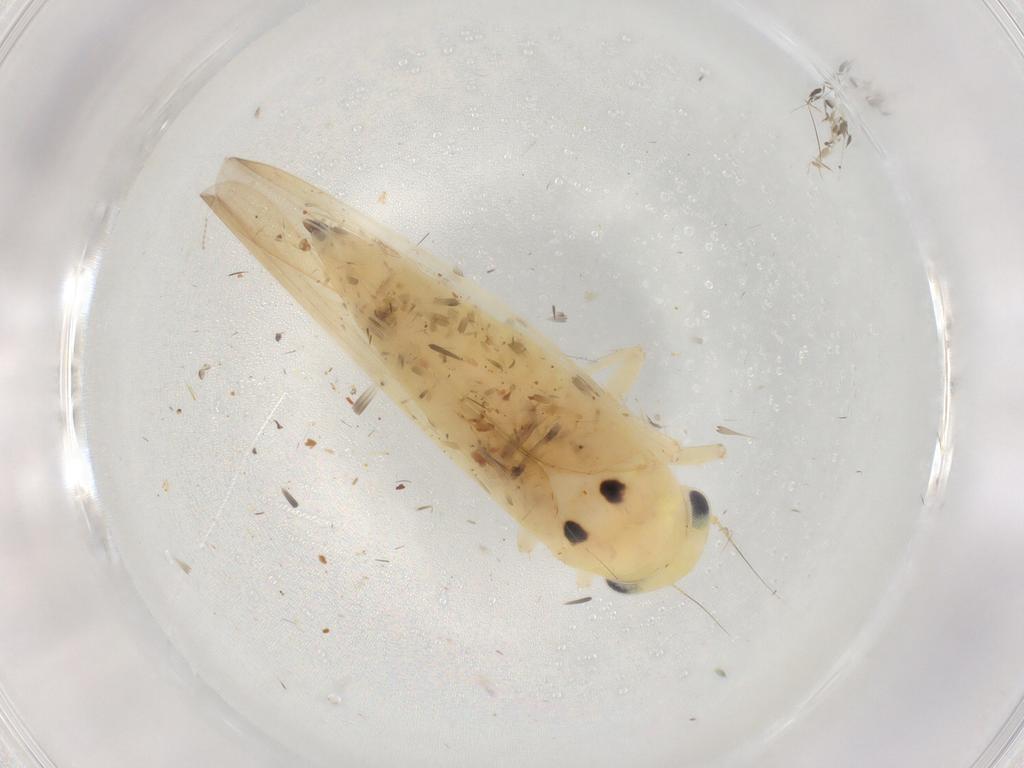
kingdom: Animalia
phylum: Arthropoda
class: Insecta
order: Hemiptera
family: Cicadellidae
